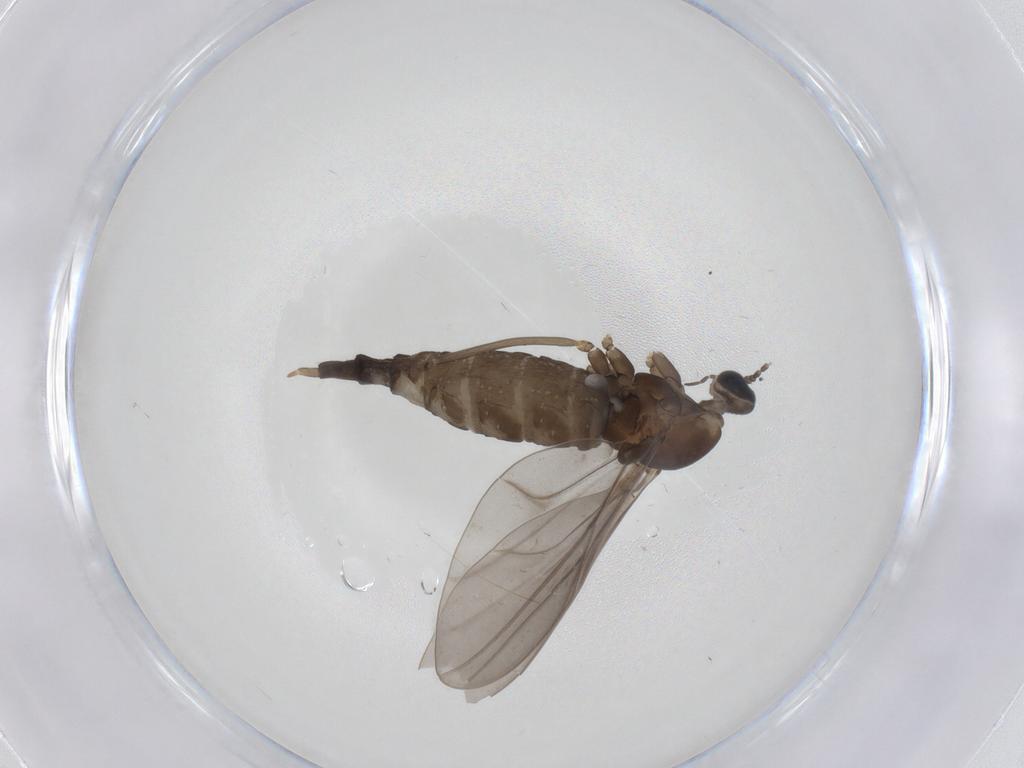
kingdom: Animalia
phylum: Arthropoda
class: Insecta
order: Diptera
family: Cecidomyiidae
